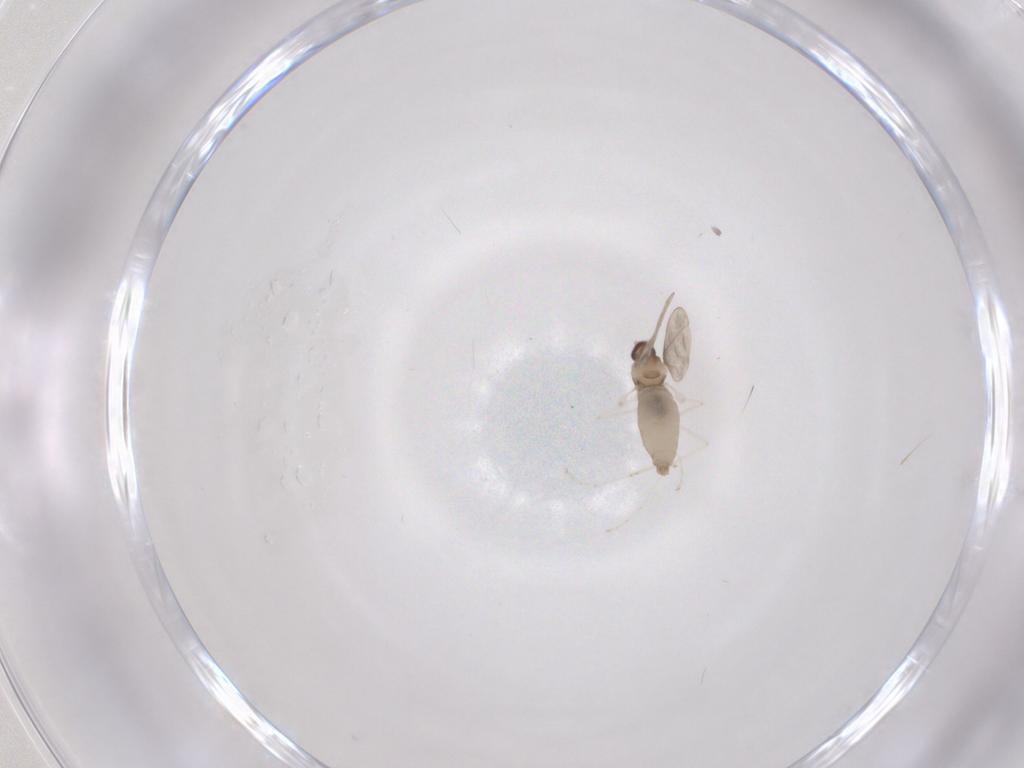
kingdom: Animalia
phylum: Arthropoda
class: Insecta
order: Diptera
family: Cecidomyiidae
